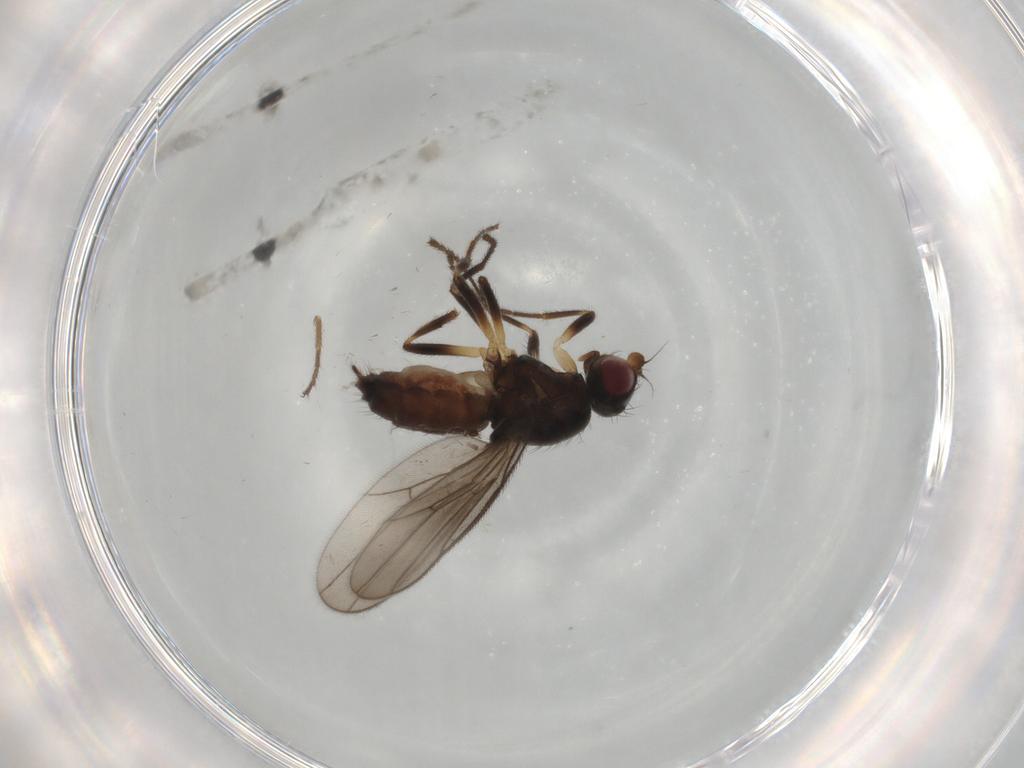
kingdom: Animalia
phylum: Arthropoda
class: Insecta
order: Diptera
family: Chloropidae
